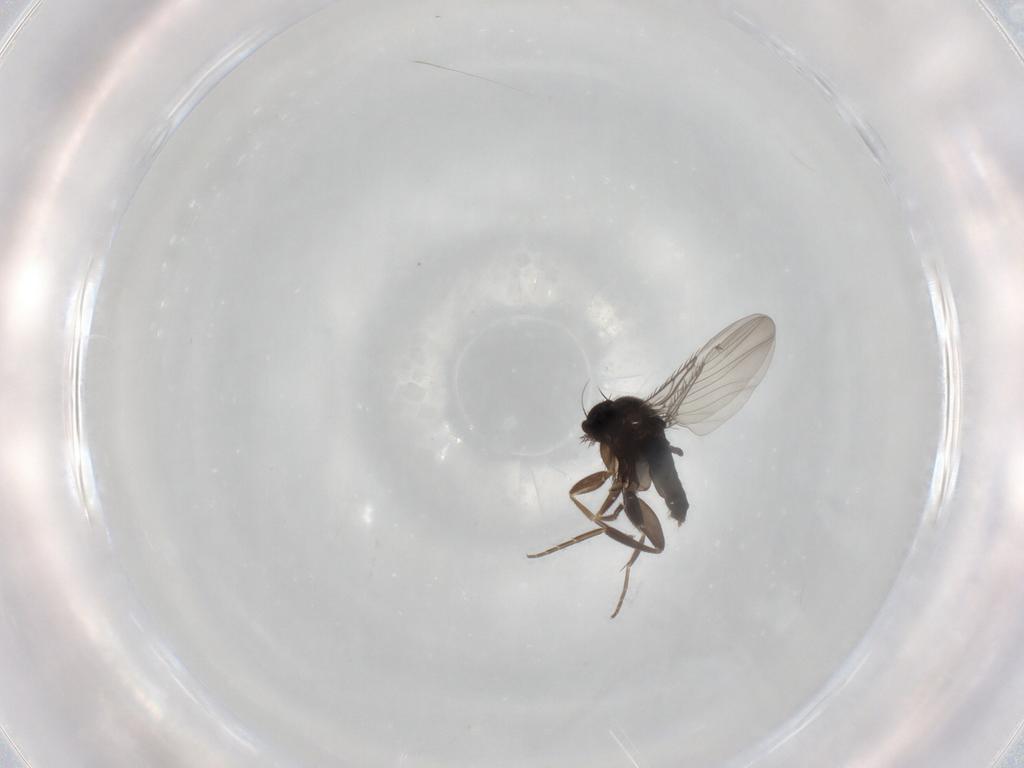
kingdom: Animalia
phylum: Arthropoda
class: Insecta
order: Diptera
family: Phoridae
